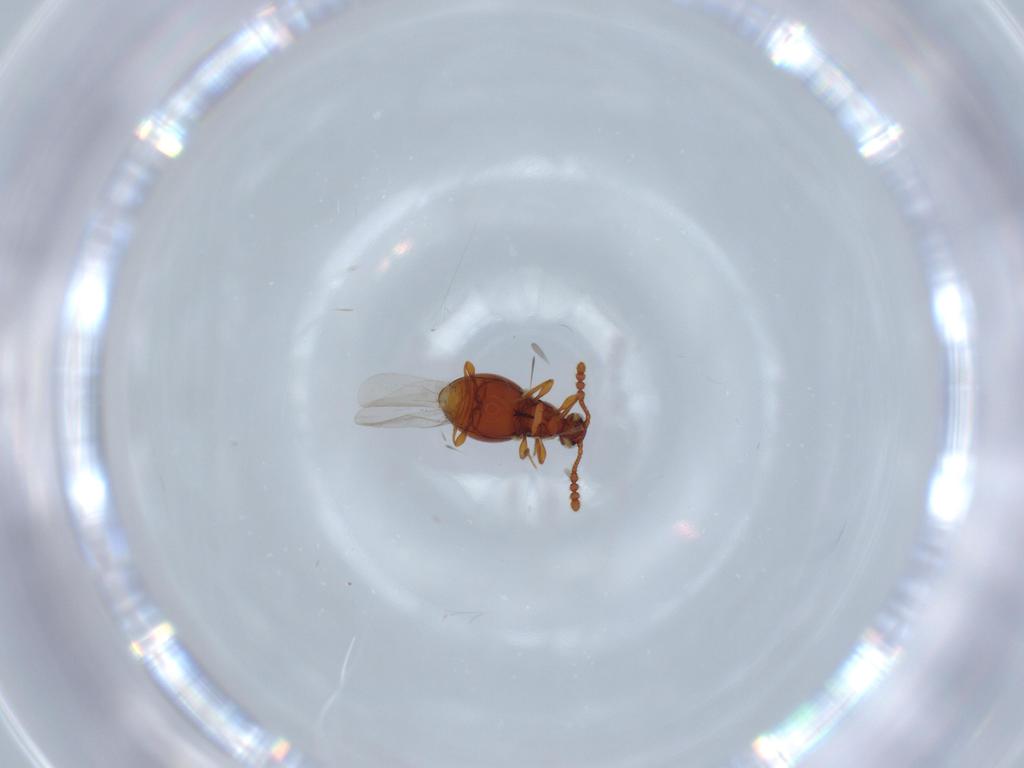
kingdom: Animalia
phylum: Arthropoda
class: Insecta
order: Coleoptera
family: Staphylinidae
